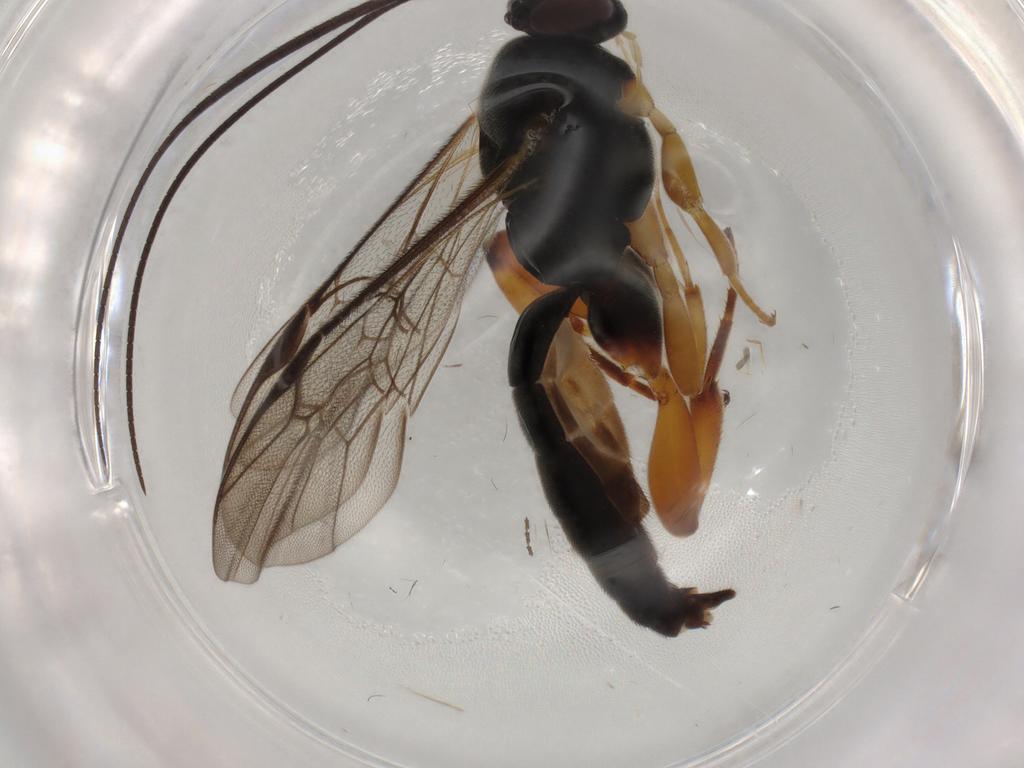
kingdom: Animalia
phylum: Arthropoda
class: Insecta
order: Hymenoptera
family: Ichneumonidae
